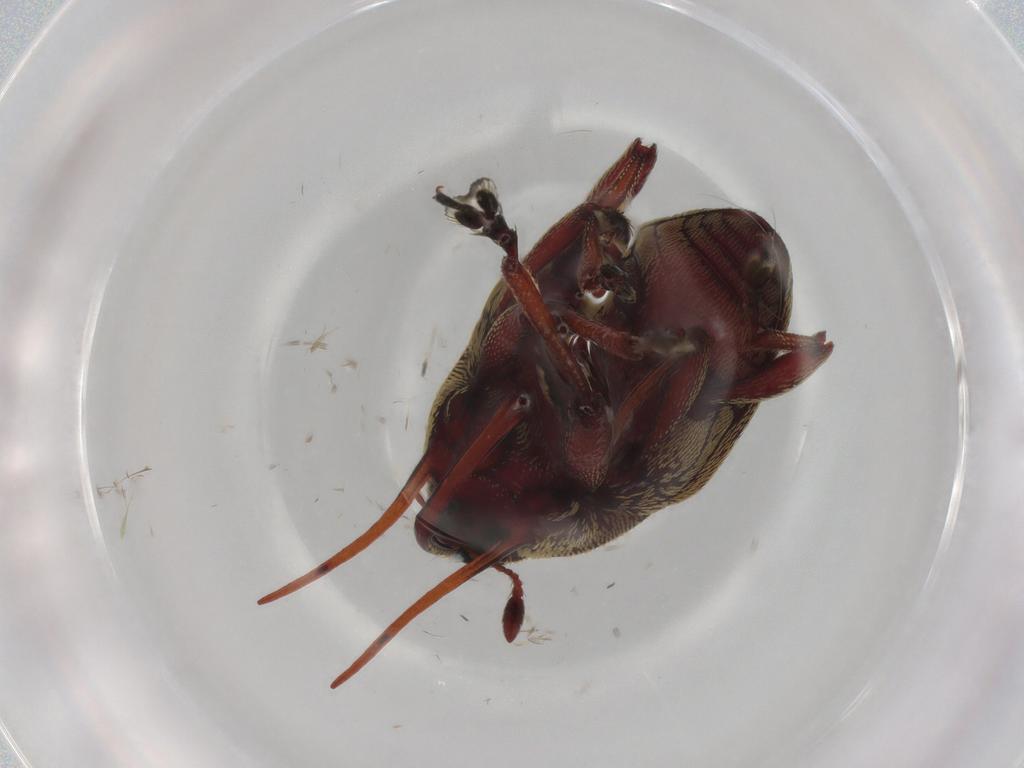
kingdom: Animalia
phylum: Arthropoda
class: Insecta
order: Coleoptera
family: Curculionidae
